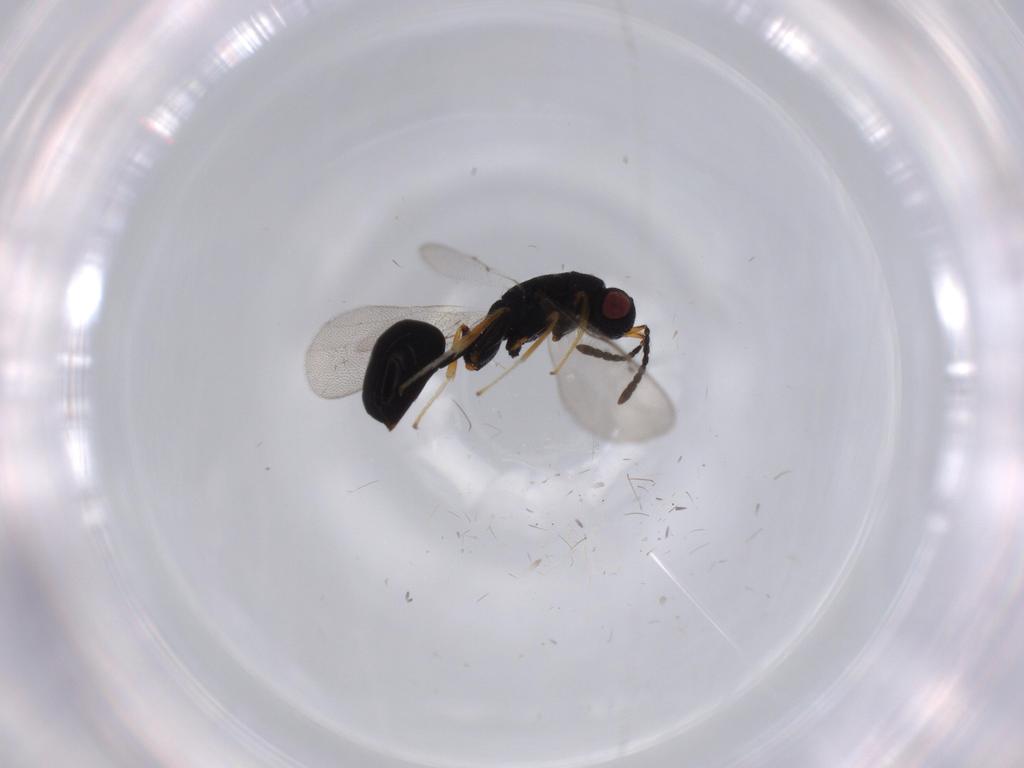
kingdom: Animalia
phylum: Arthropoda
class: Insecta
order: Hymenoptera
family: Eurytomidae
